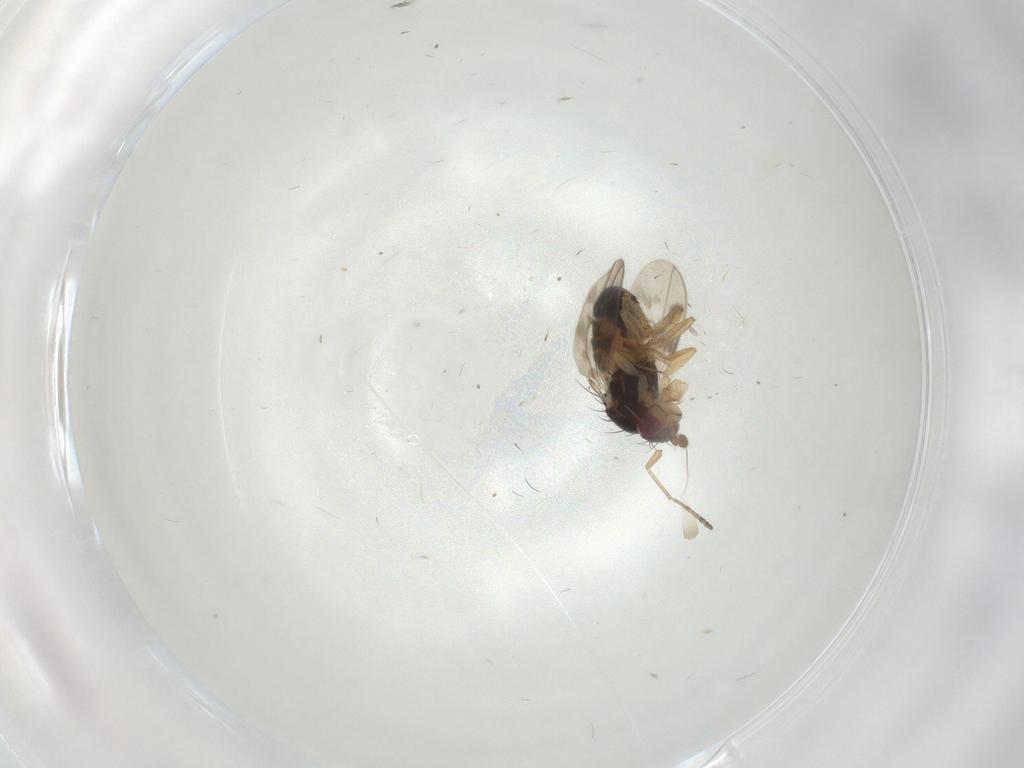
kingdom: Animalia
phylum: Arthropoda
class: Insecta
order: Diptera
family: Sphaeroceridae
